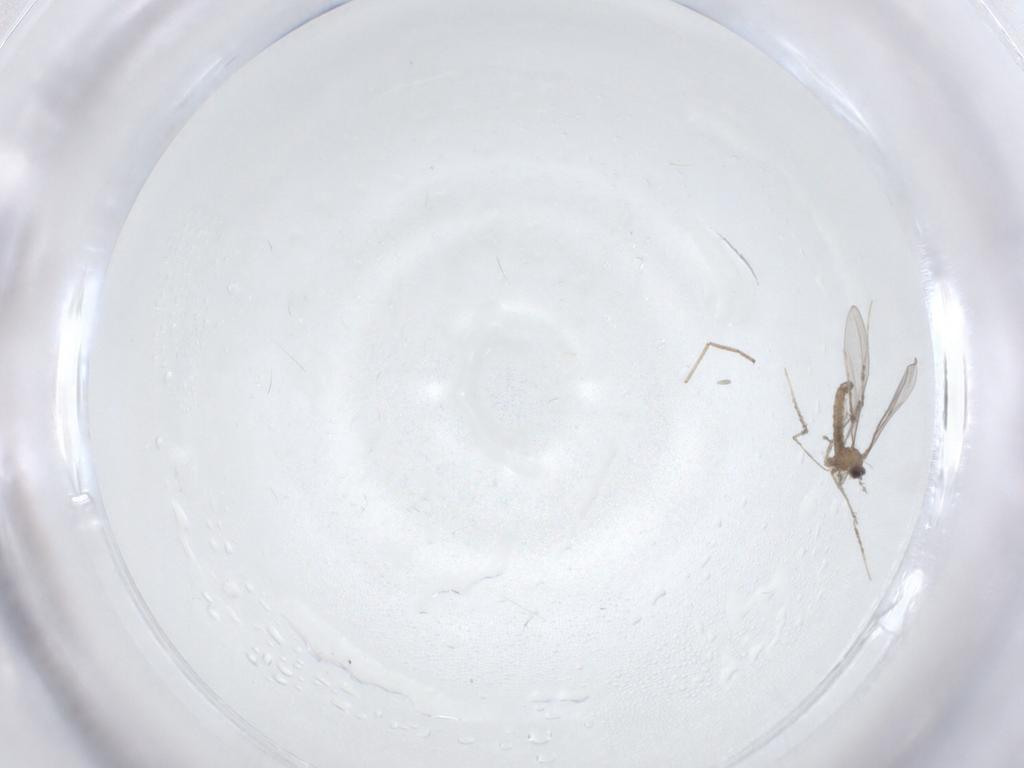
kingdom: Animalia
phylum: Arthropoda
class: Insecta
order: Diptera
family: Cecidomyiidae
